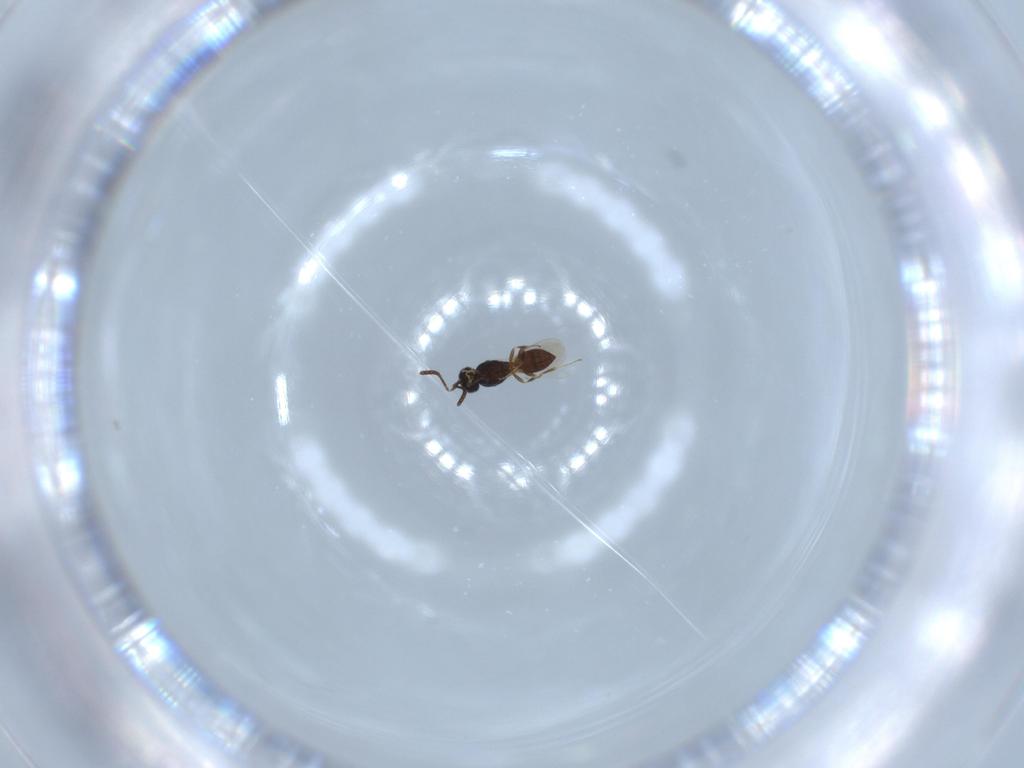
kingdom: Animalia
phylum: Arthropoda
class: Insecta
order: Hymenoptera
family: Scelionidae
